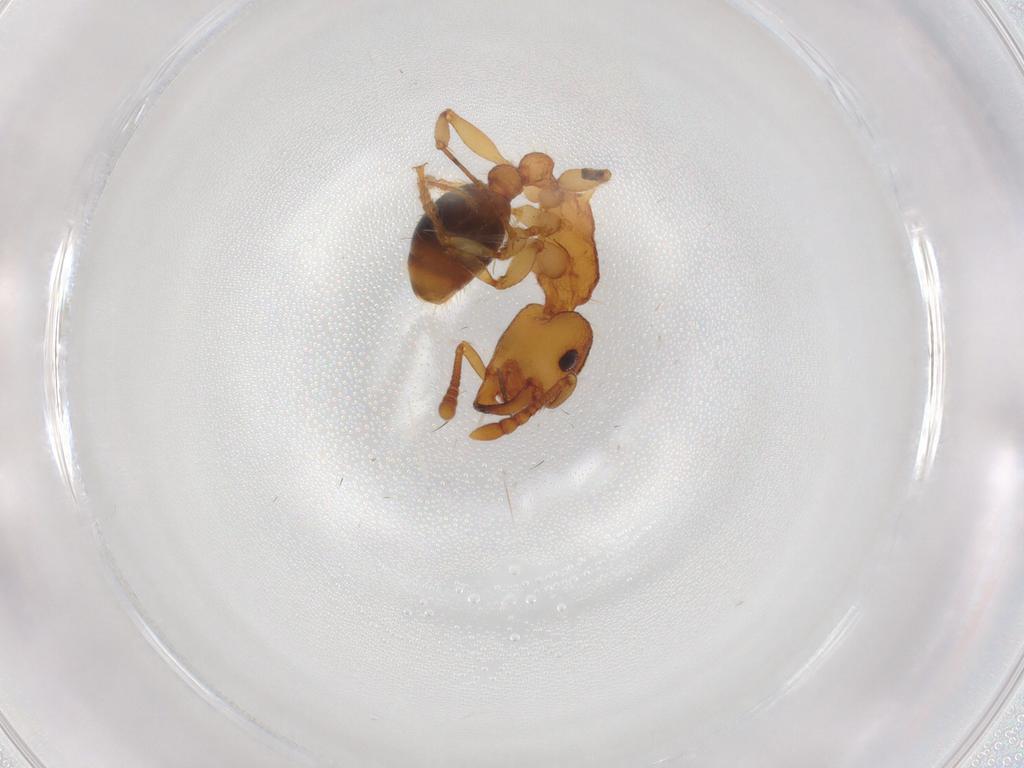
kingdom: Animalia
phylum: Arthropoda
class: Insecta
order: Hymenoptera
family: Formicidae
